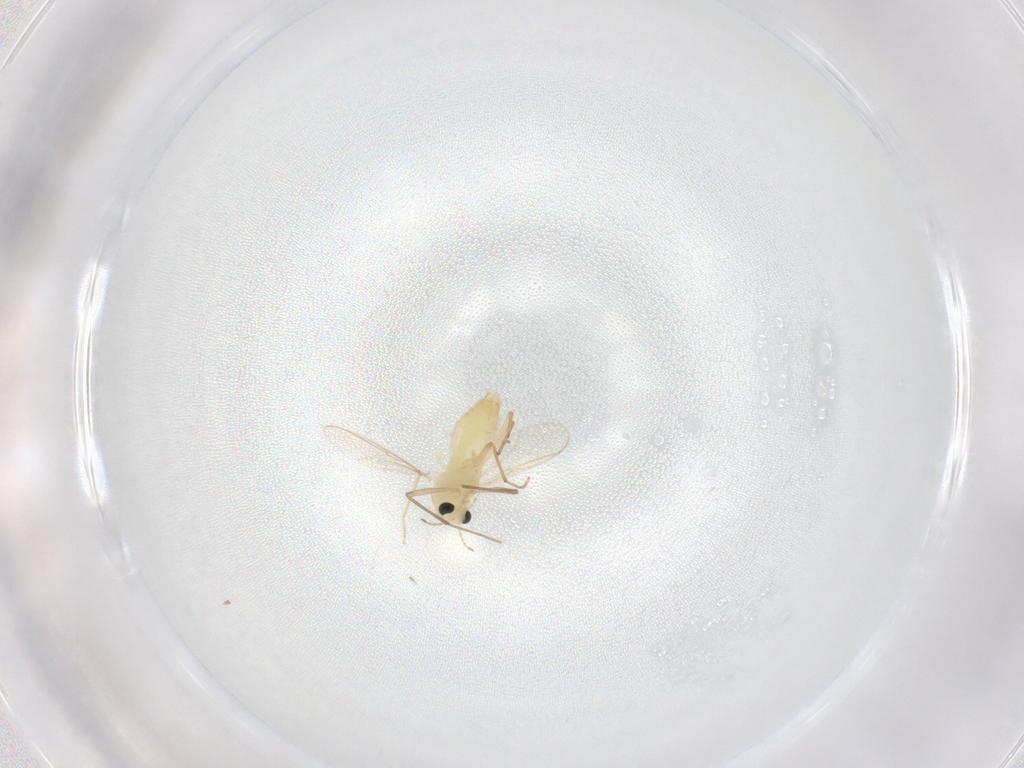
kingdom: Animalia
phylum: Arthropoda
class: Insecta
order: Diptera
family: Chironomidae
